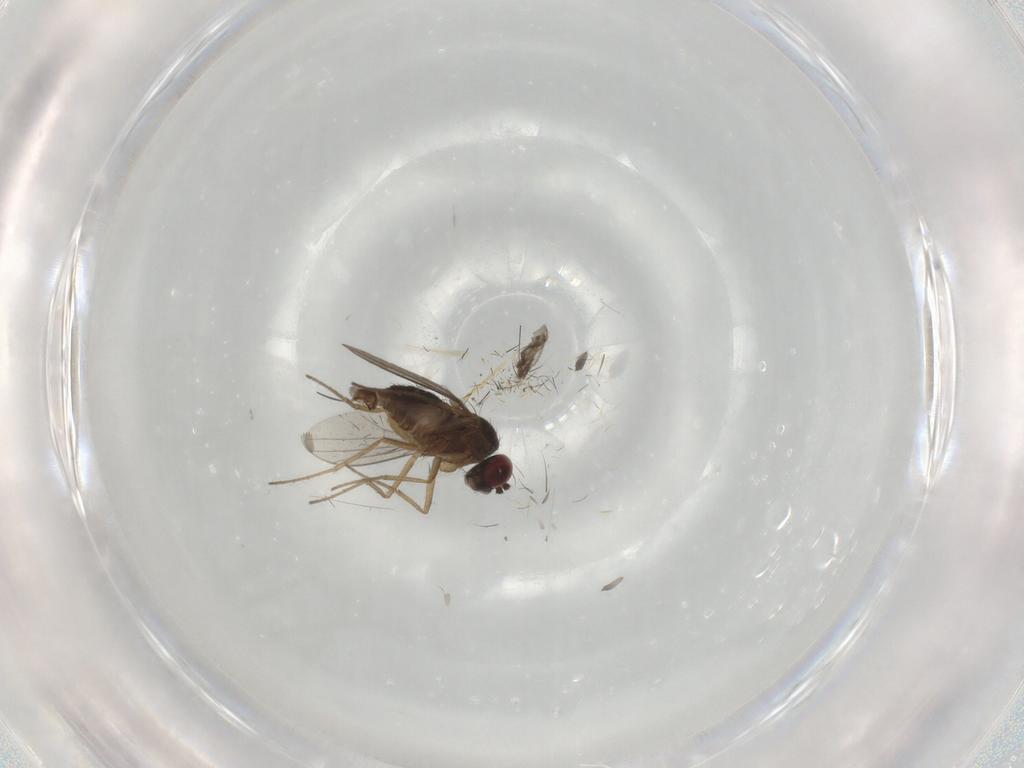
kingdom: Animalia
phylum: Arthropoda
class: Insecta
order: Diptera
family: Dolichopodidae
